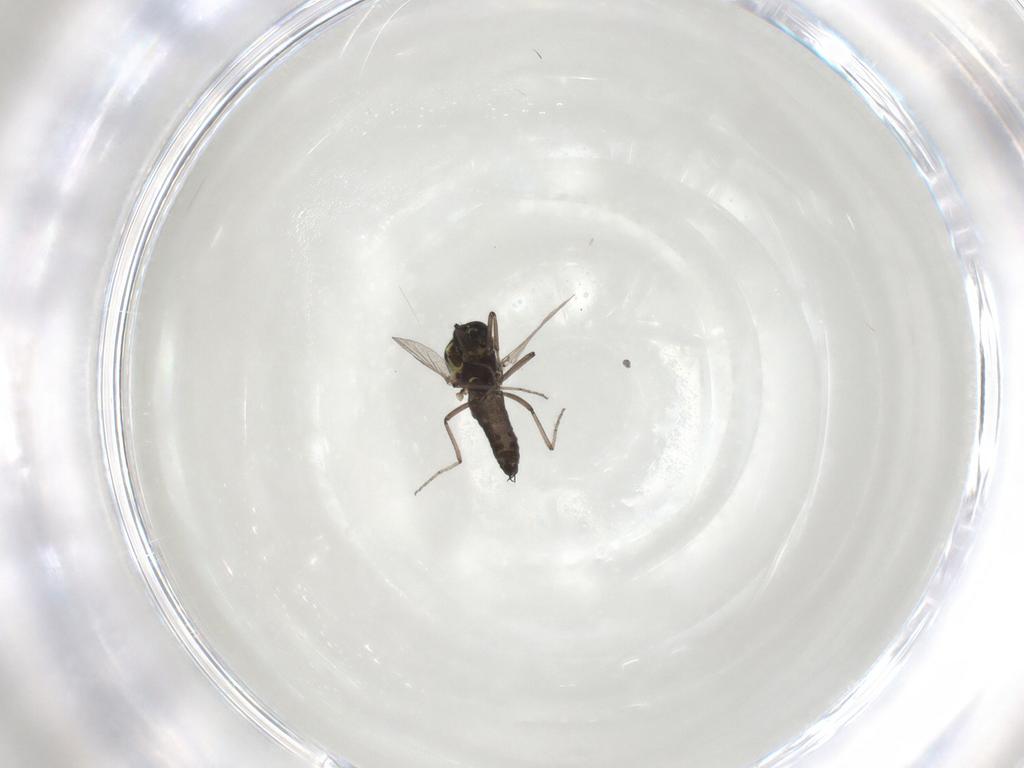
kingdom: Animalia
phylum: Arthropoda
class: Insecta
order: Diptera
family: Ceratopogonidae
